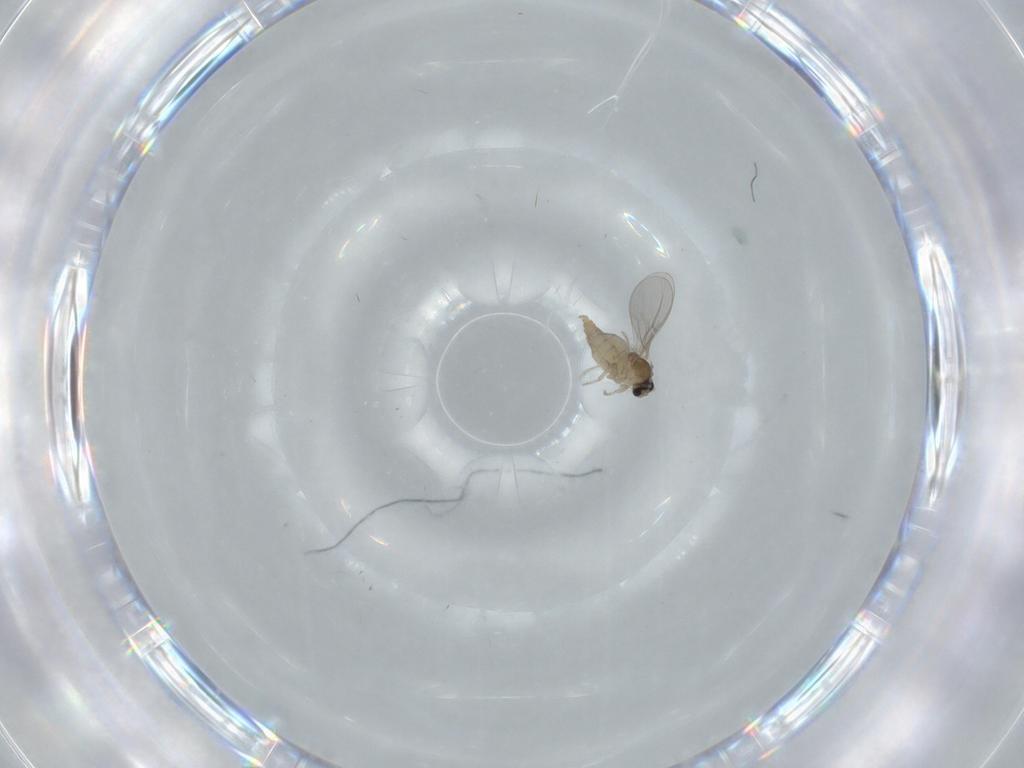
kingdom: Animalia
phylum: Arthropoda
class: Insecta
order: Diptera
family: Cecidomyiidae
